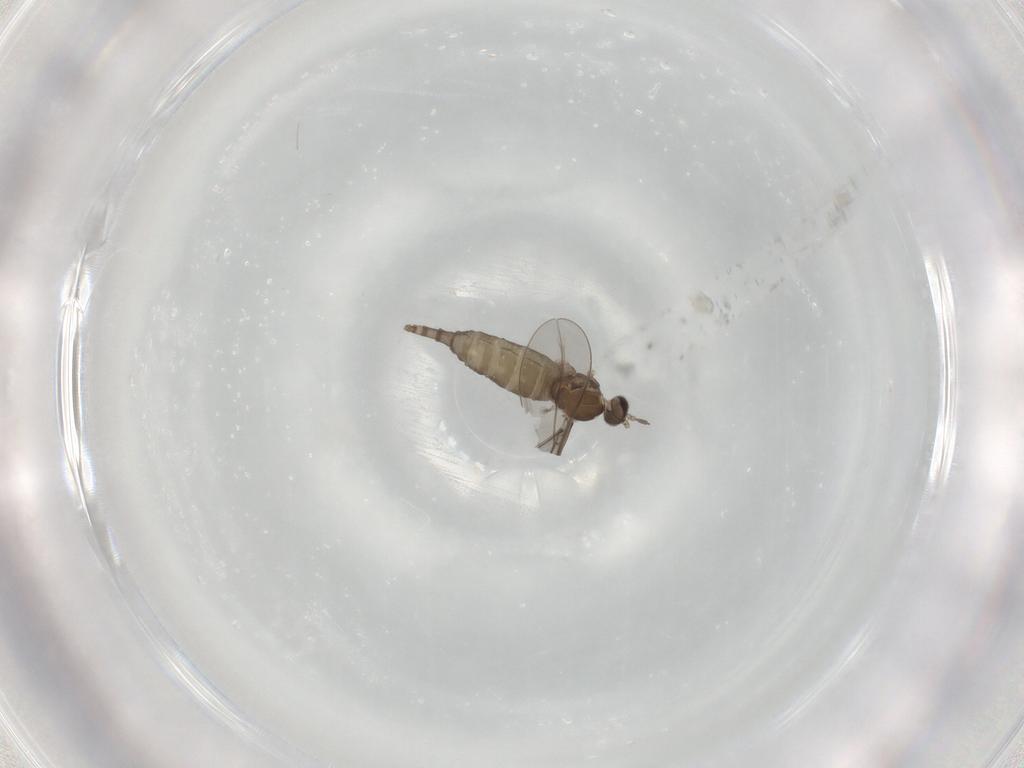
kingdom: Animalia
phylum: Arthropoda
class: Insecta
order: Diptera
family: Cecidomyiidae
